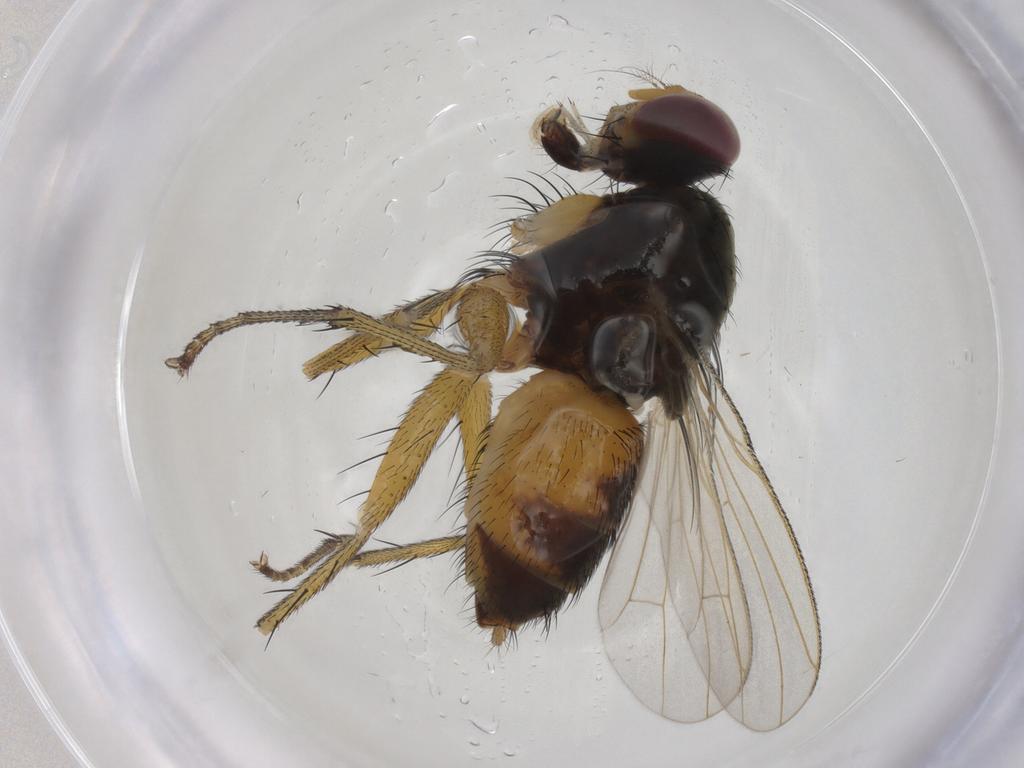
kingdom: Animalia
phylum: Arthropoda
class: Insecta
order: Diptera
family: Muscidae
